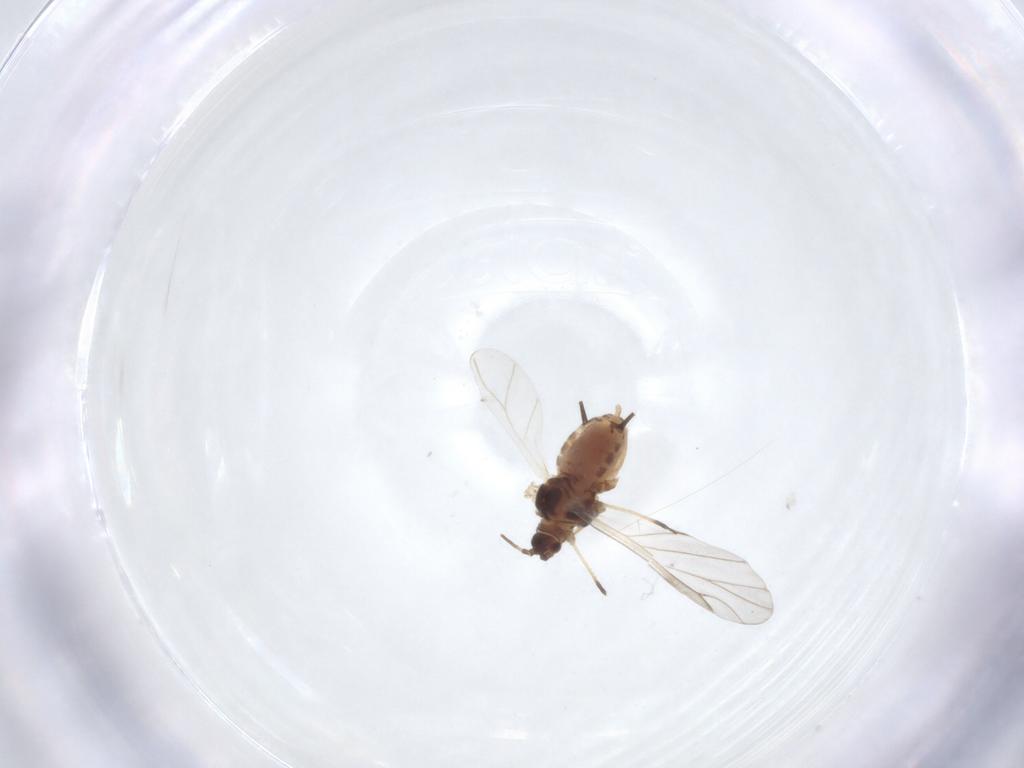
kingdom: Animalia
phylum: Arthropoda
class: Insecta
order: Hemiptera
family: Aphididae
